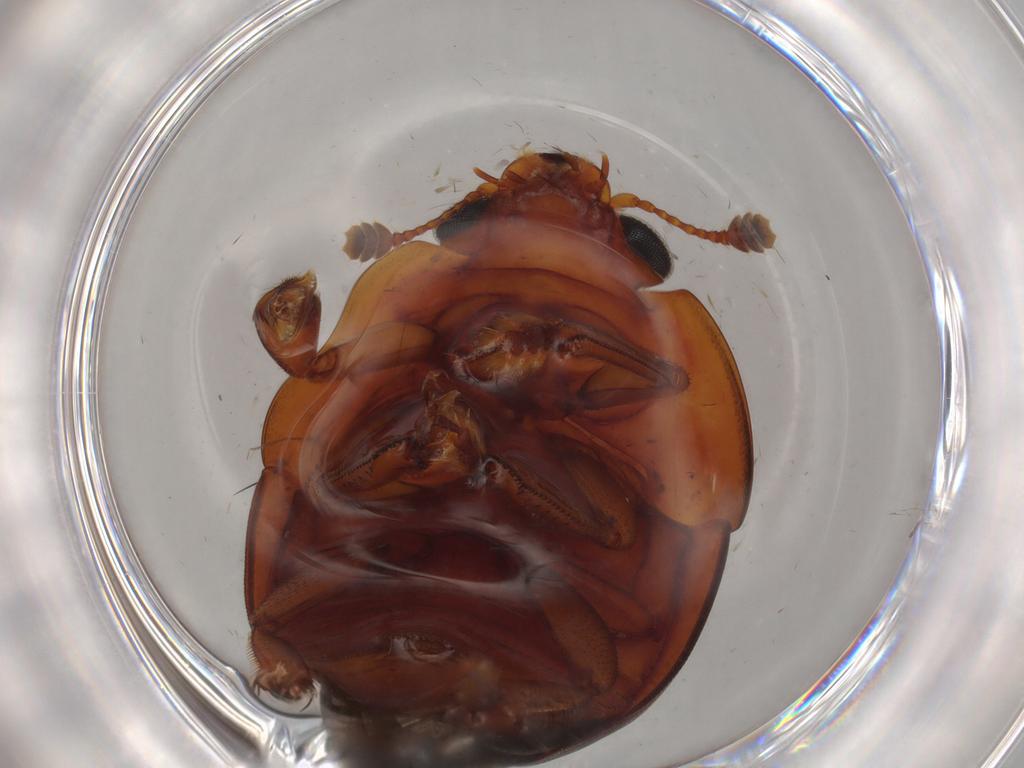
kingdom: Animalia
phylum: Arthropoda
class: Insecta
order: Coleoptera
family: Nitidulidae
